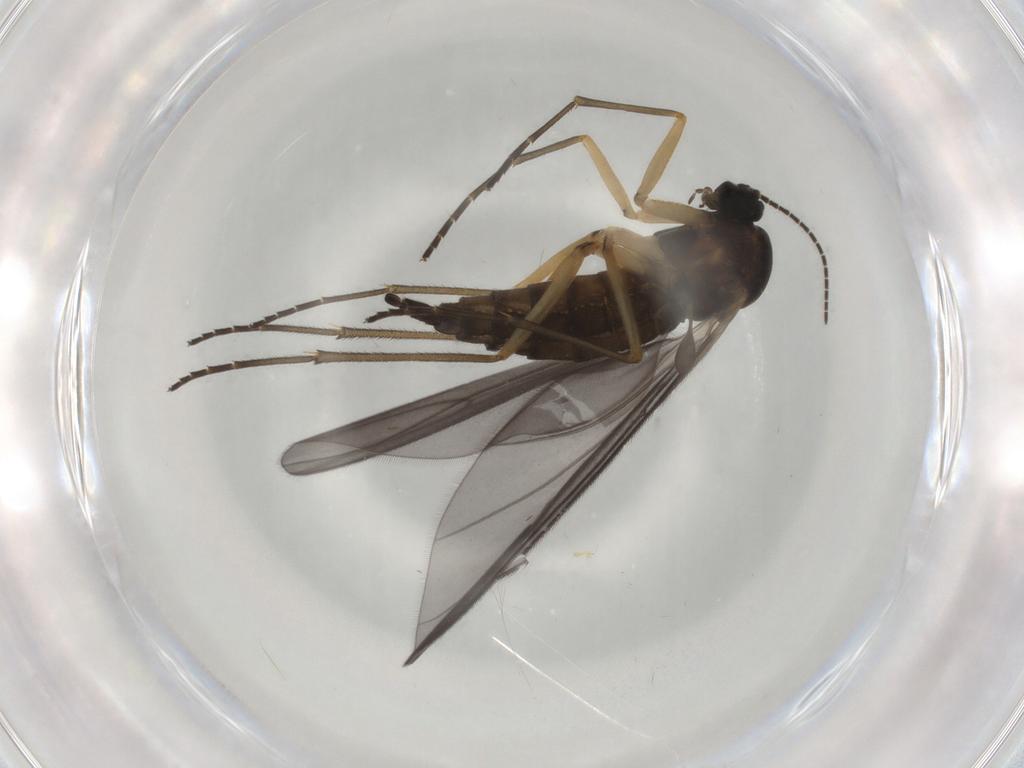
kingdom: Animalia
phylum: Arthropoda
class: Insecta
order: Diptera
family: Sciaridae
